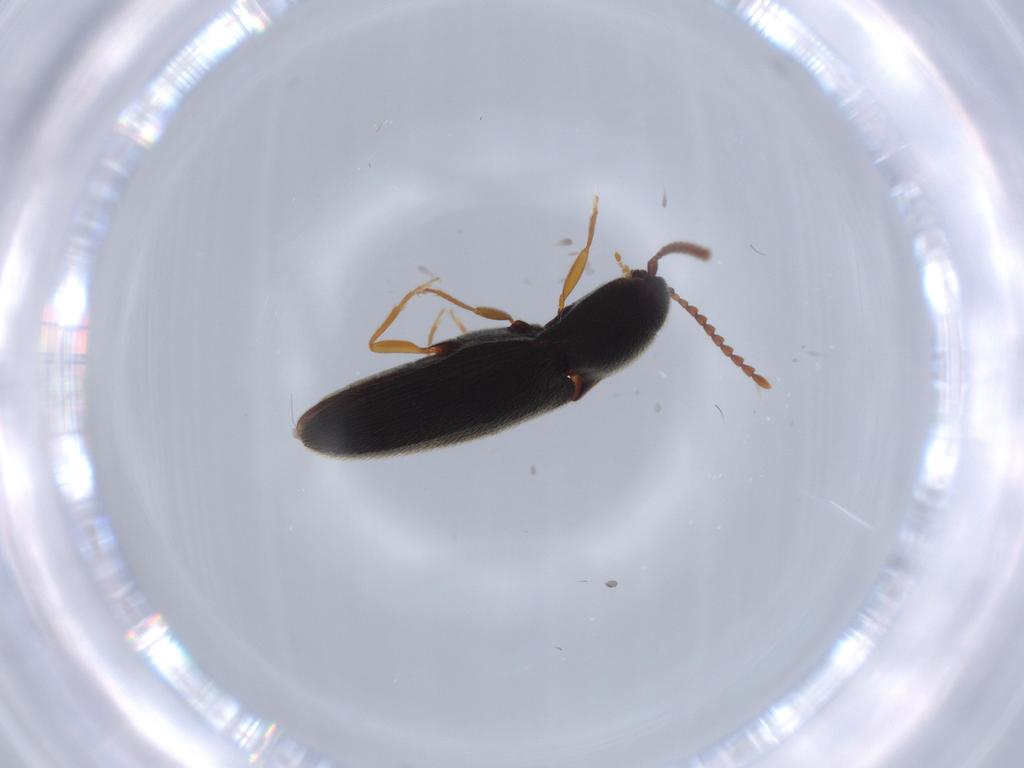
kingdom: Animalia
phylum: Arthropoda
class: Insecta
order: Coleoptera
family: Elateridae
